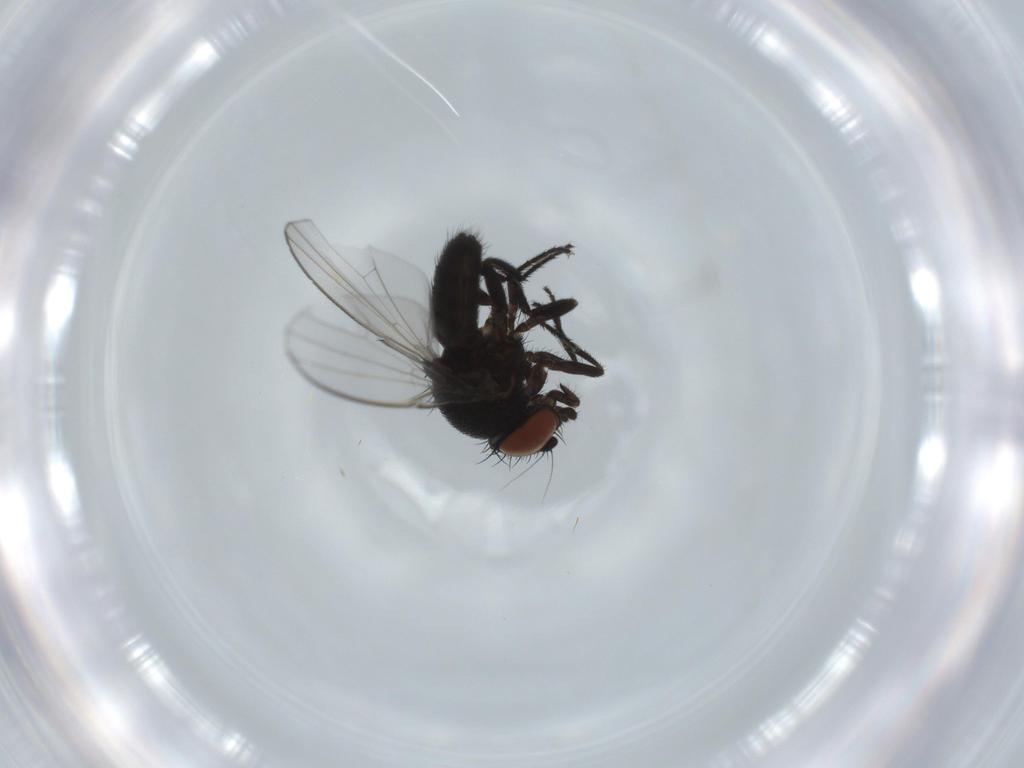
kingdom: Animalia
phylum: Arthropoda
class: Insecta
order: Diptera
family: Milichiidae
